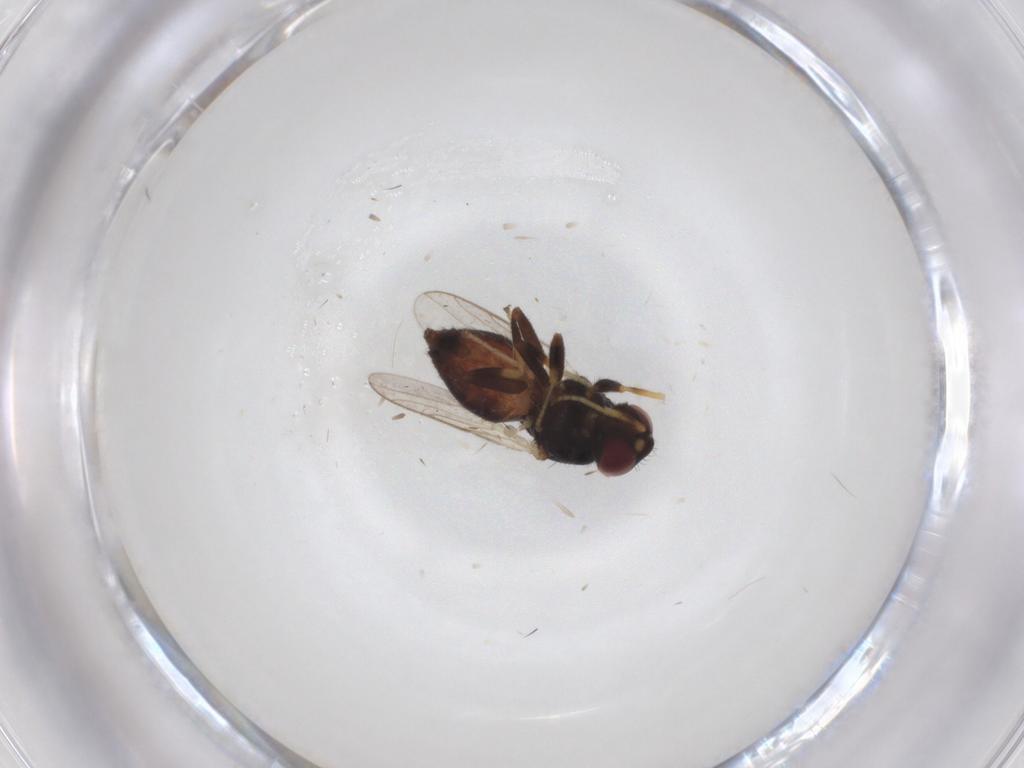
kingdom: Animalia
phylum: Arthropoda
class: Insecta
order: Diptera
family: Chloropidae
